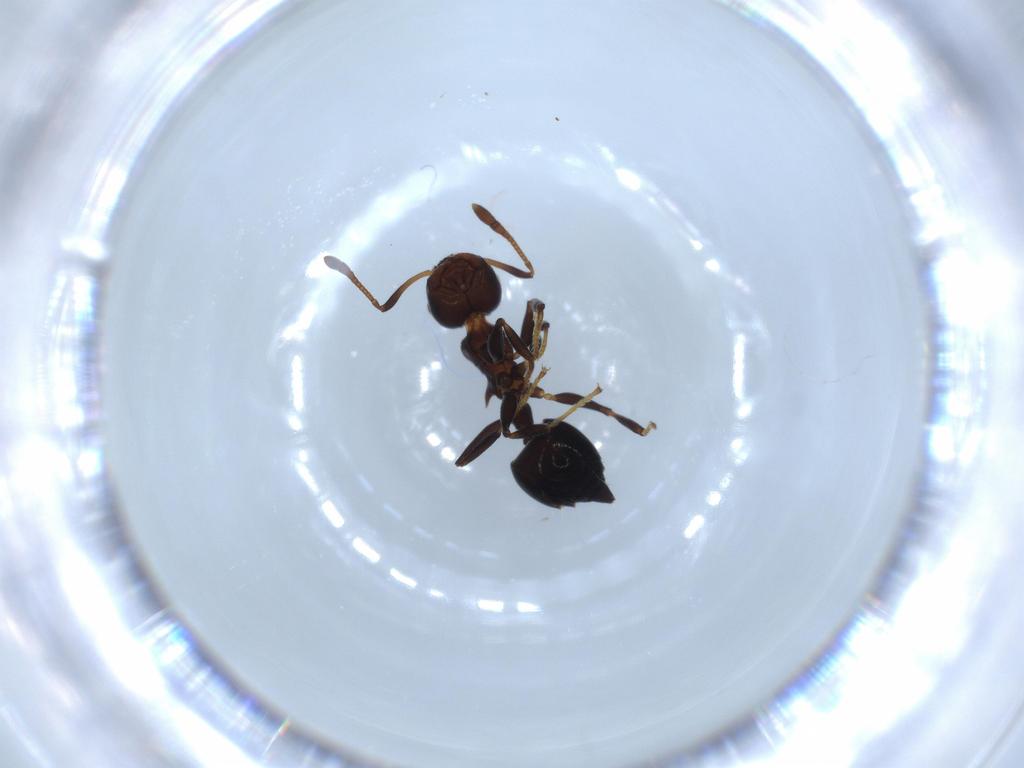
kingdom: Animalia
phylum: Arthropoda
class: Insecta
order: Hymenoptera
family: Formicidae
